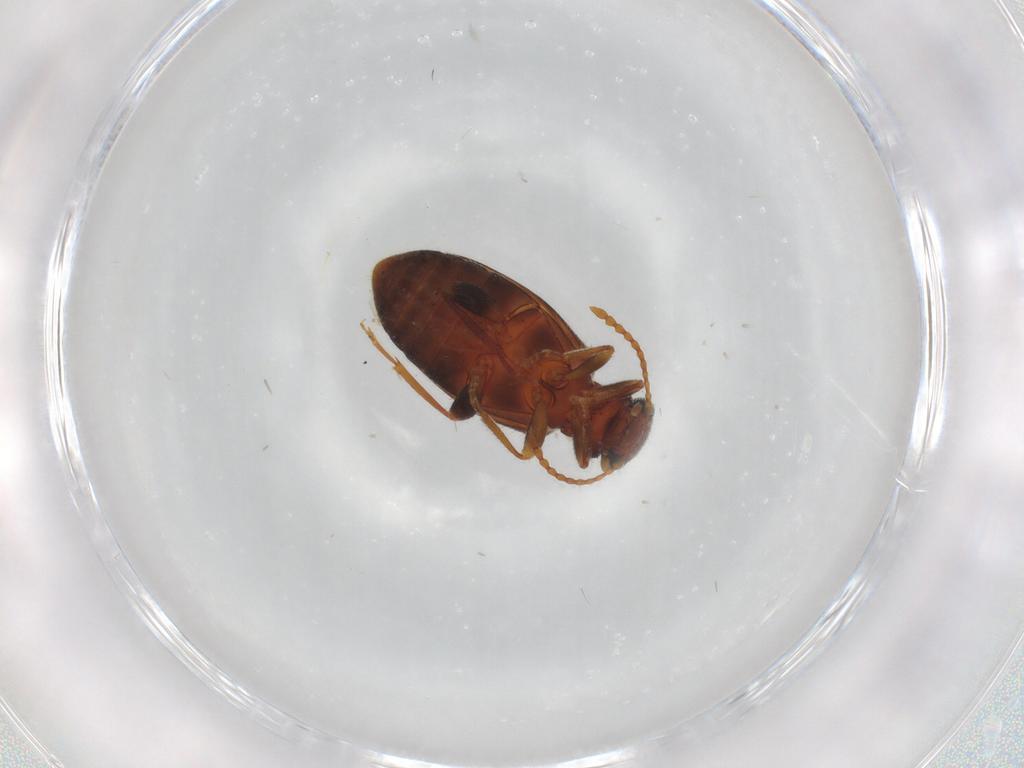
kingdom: Animalia
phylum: Arthropoda
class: Insecta
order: Coleoptera
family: Anthicidae
